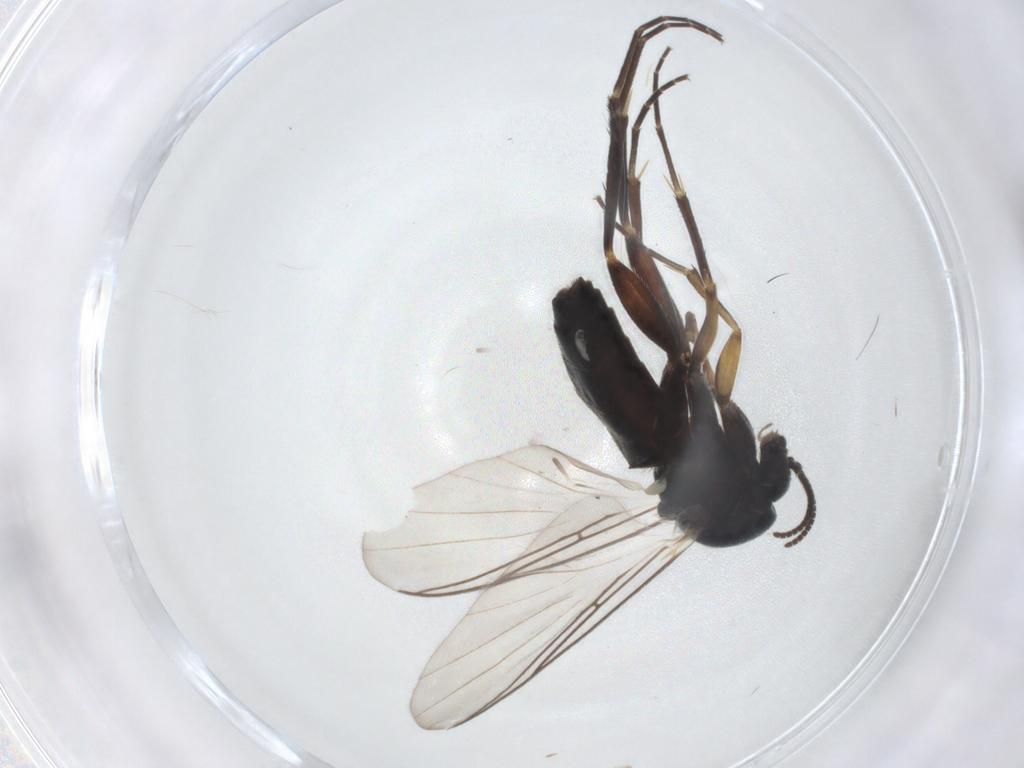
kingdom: Animalia
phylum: Arthropoda
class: Insecta
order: Diptera
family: Mycetophilidae
